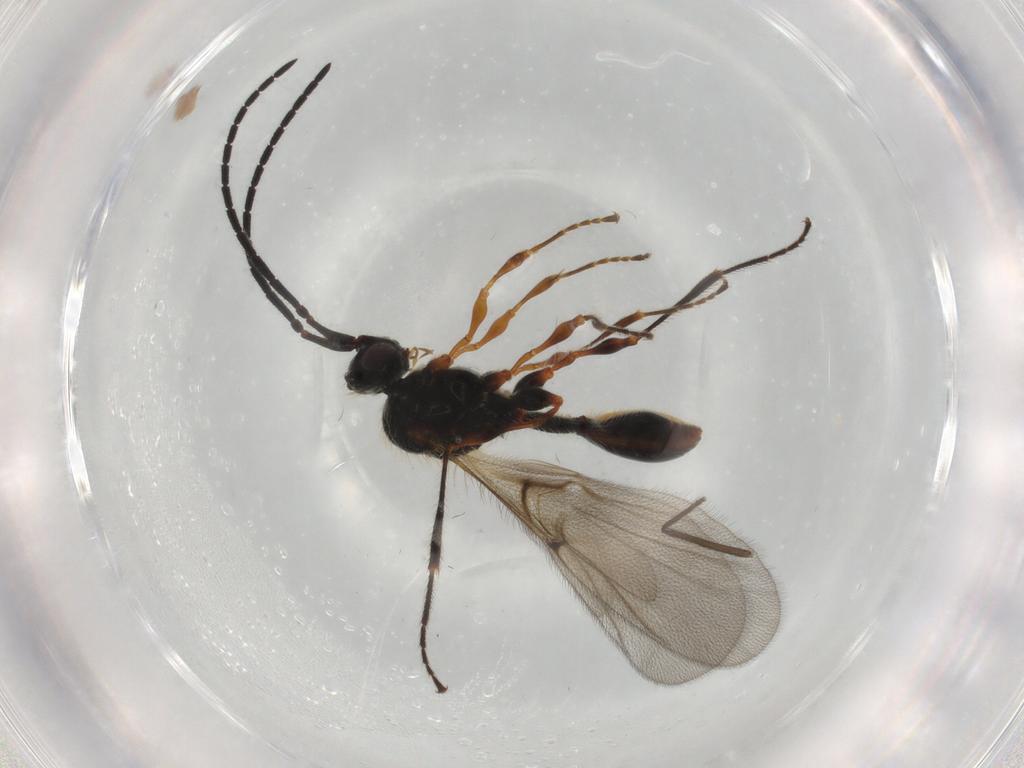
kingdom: Animalia
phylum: Arthropoda
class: Insecta
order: Hymenoptera
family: Diapriidae
